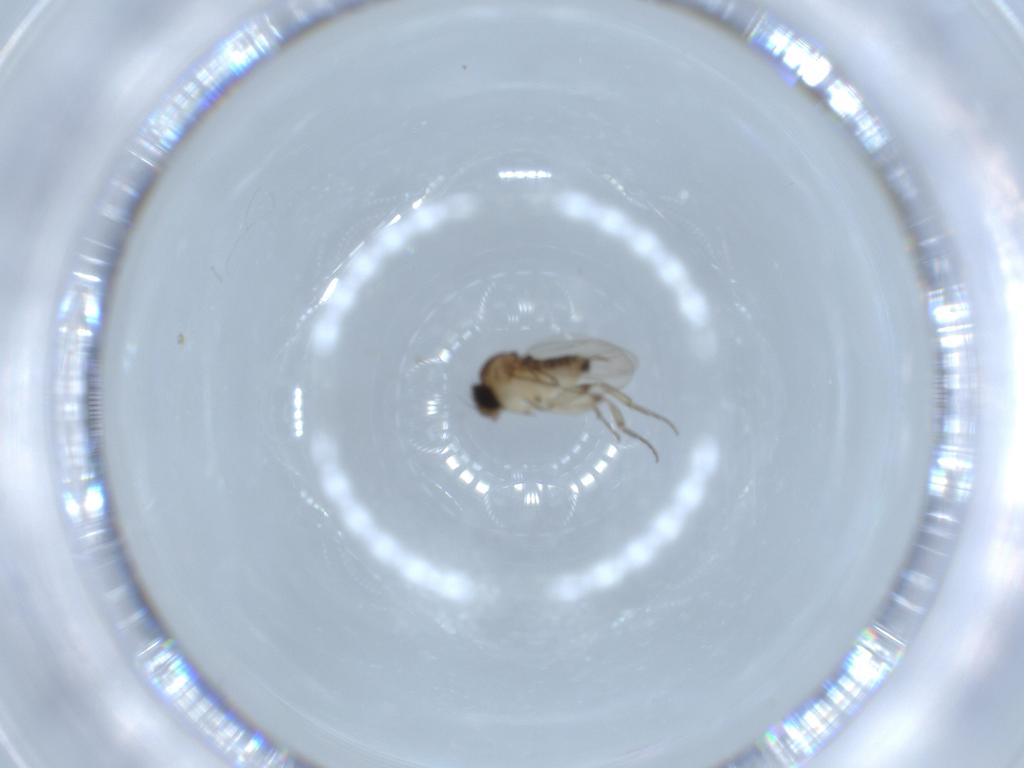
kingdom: Animalia
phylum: Arthropoda
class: Insecta
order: Diptera
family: Phoridae
